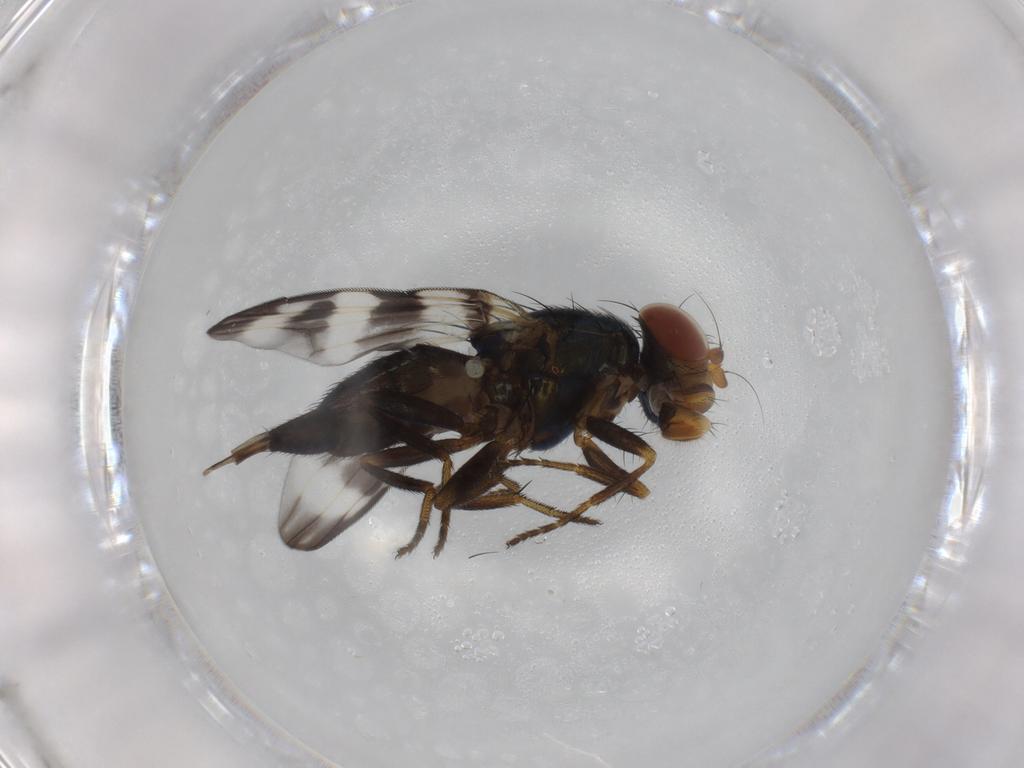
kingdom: Animalia
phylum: Arthropoda
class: Insecta
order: Diptera
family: Ulidiidae
